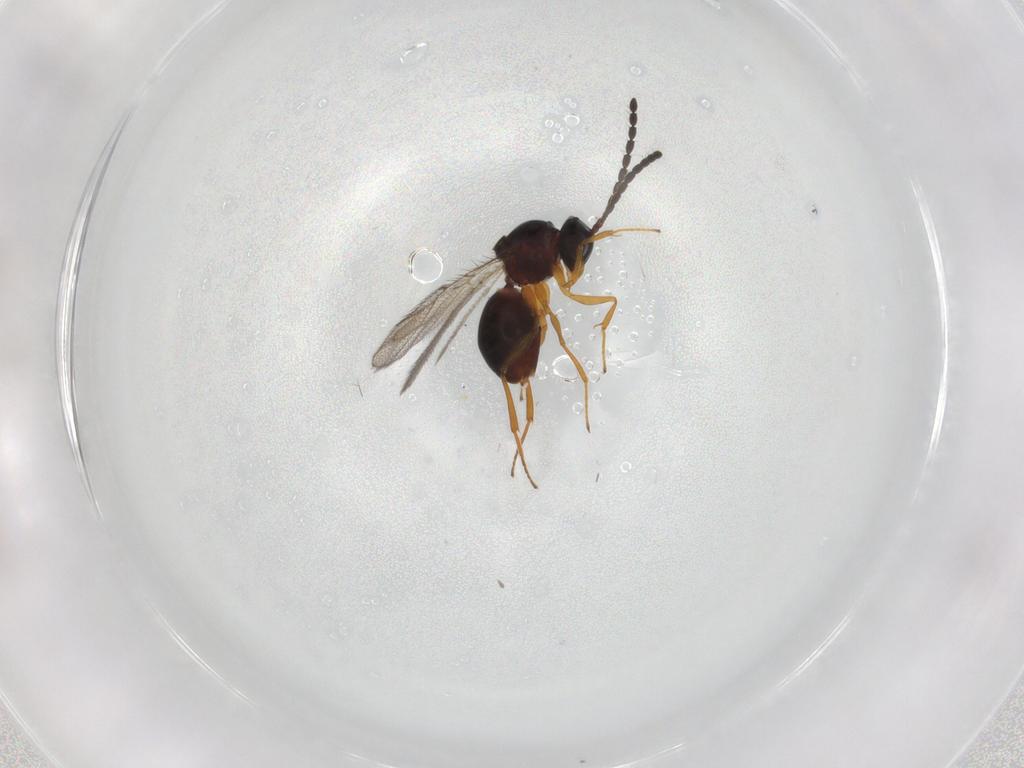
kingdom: Animalia
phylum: Arthropoda
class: Insecta
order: Hymenoptera
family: Figitidae
